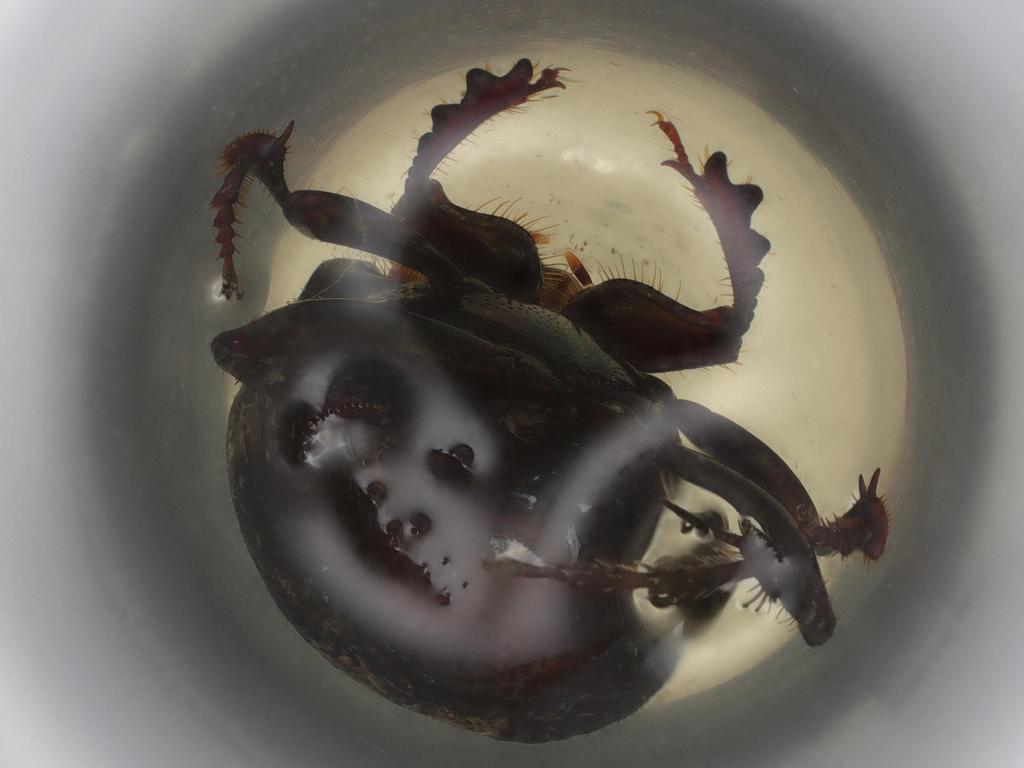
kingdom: Animalia
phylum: Arthropoda
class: Insecta
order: Coleoptera
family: Scarabaeidae
